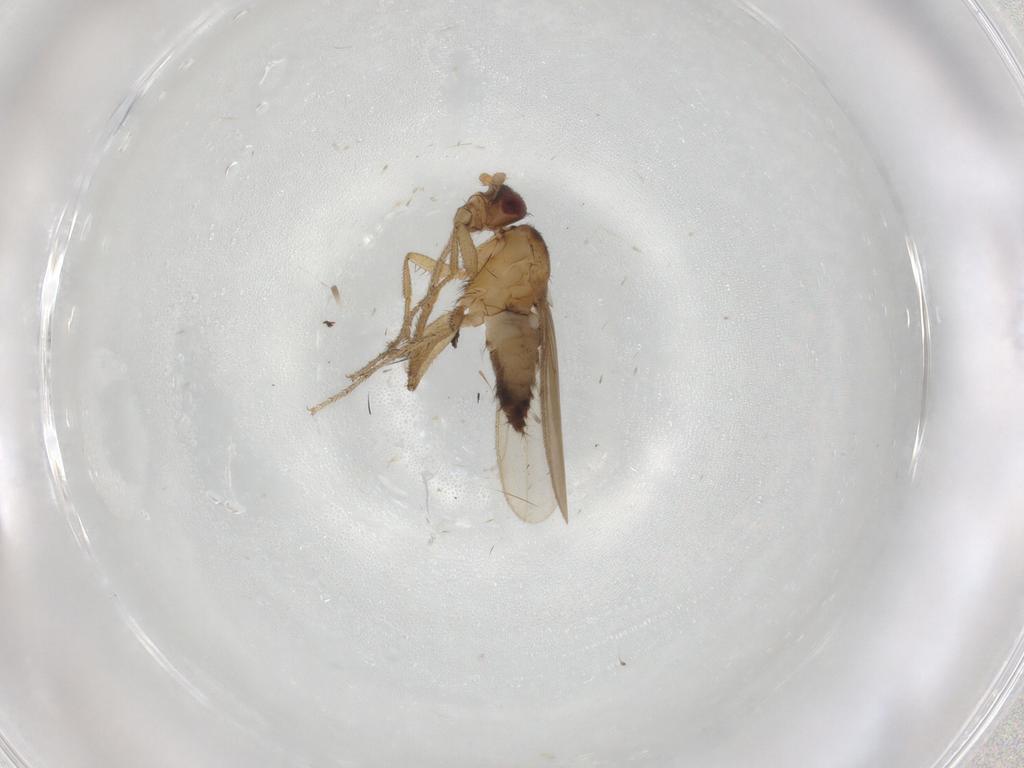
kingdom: Animalia
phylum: Arthropoda
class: Insecta
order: Diptera
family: Sphaeroceridae
